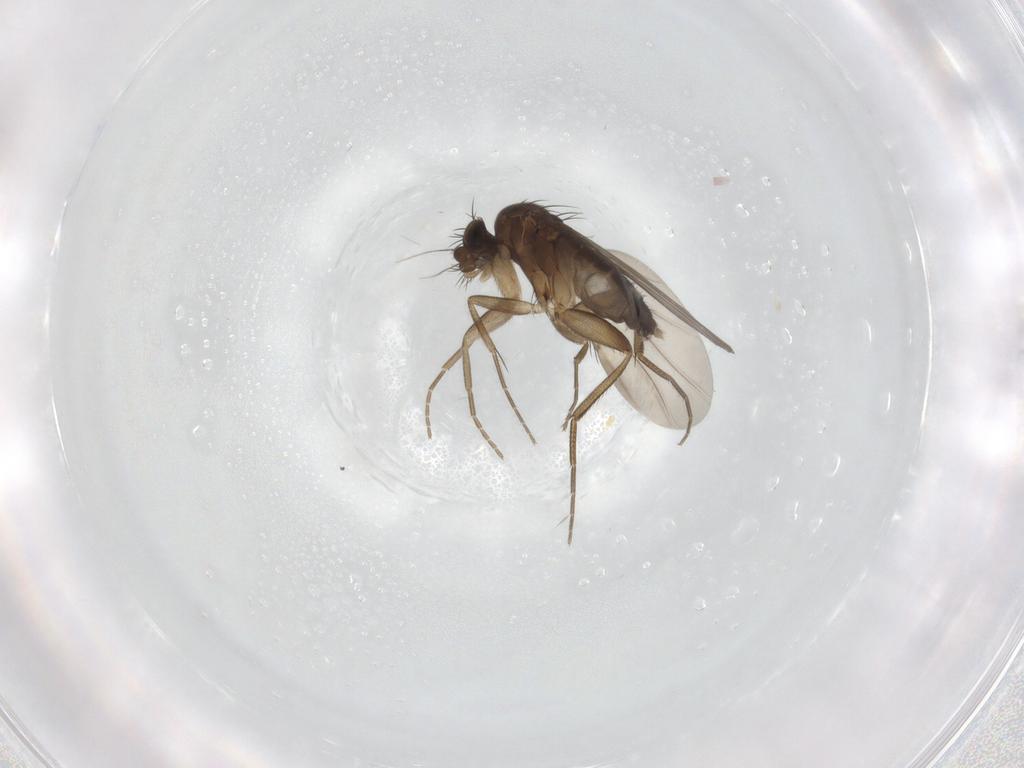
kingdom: Animalia
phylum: Arthropoda
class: Insecta
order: Diptera
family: Phoridae
